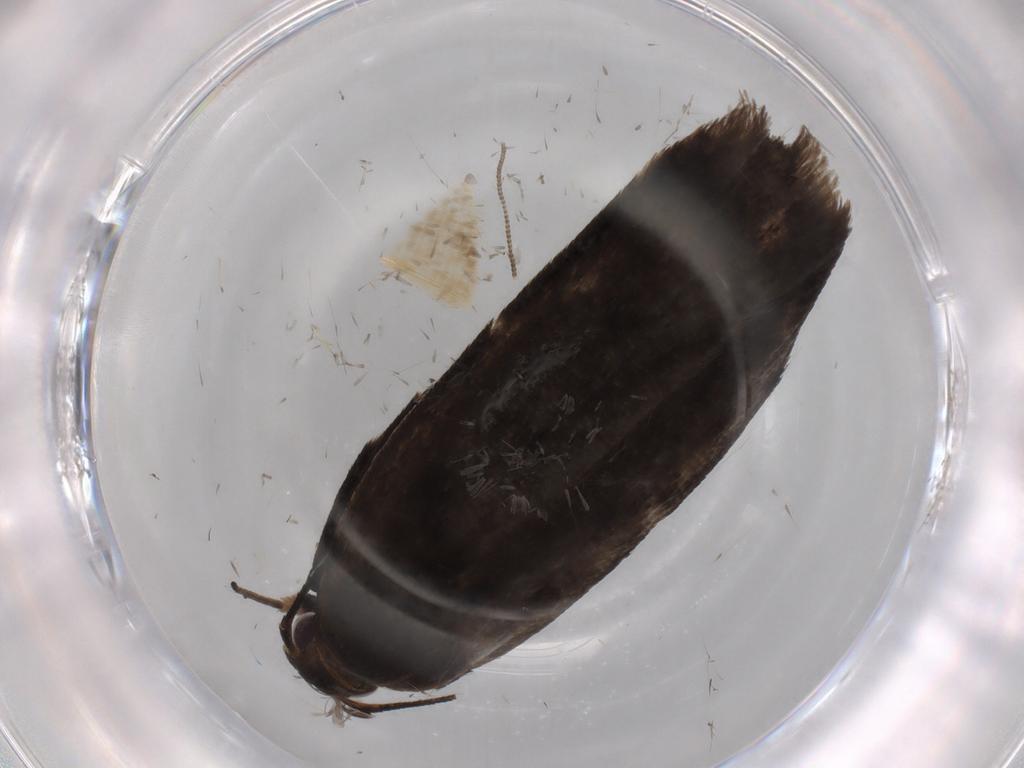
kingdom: Animalia
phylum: Arthropoda
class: Insecta
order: Lepidoptera
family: Gelechiidae
